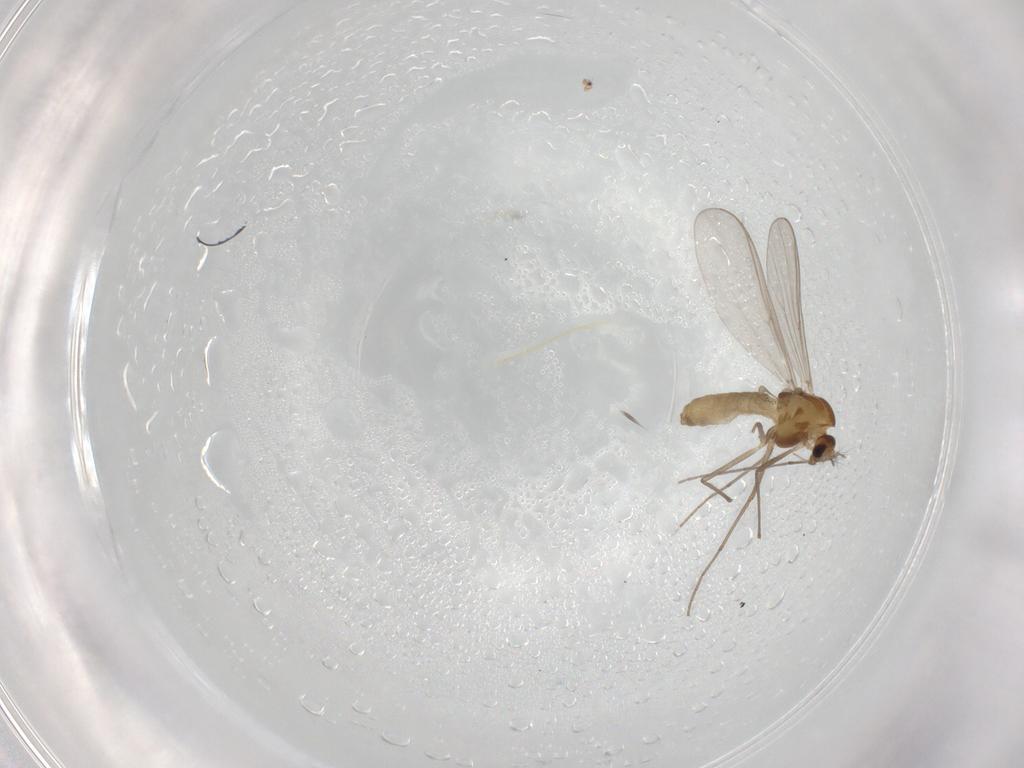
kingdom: Animalia
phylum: Arthropoda
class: Insecta
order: Diptera
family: Chironomidae
